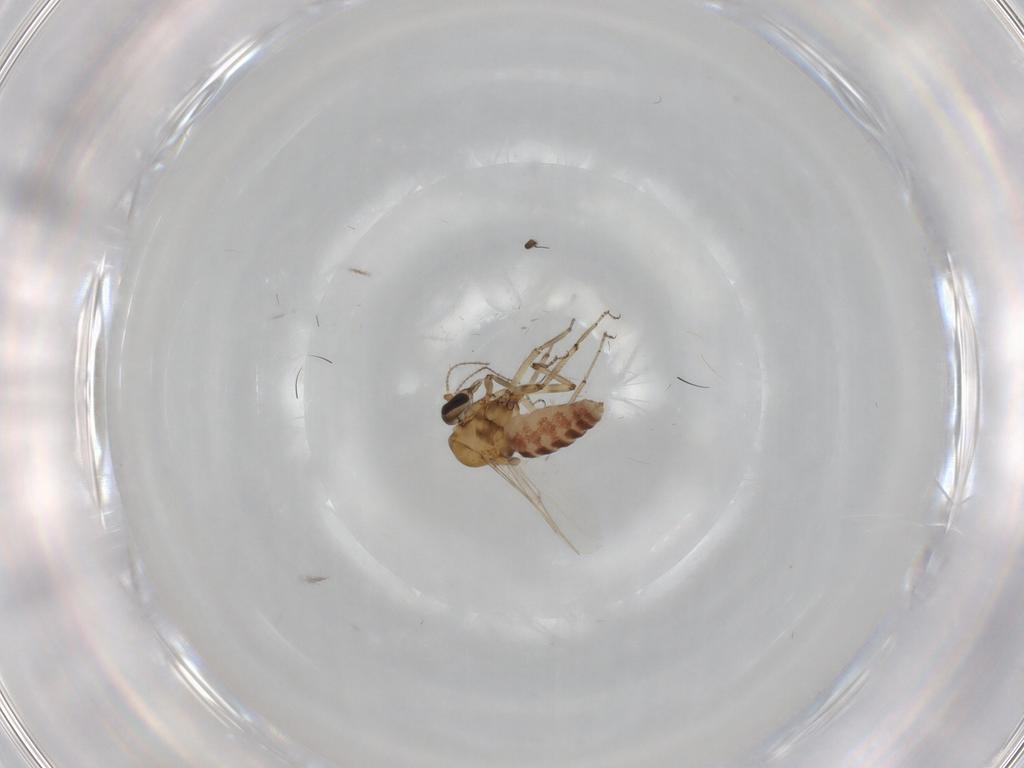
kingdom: Animalia
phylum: Arthropoda
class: Insecta
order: Diptera
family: Ceratopogonidae
